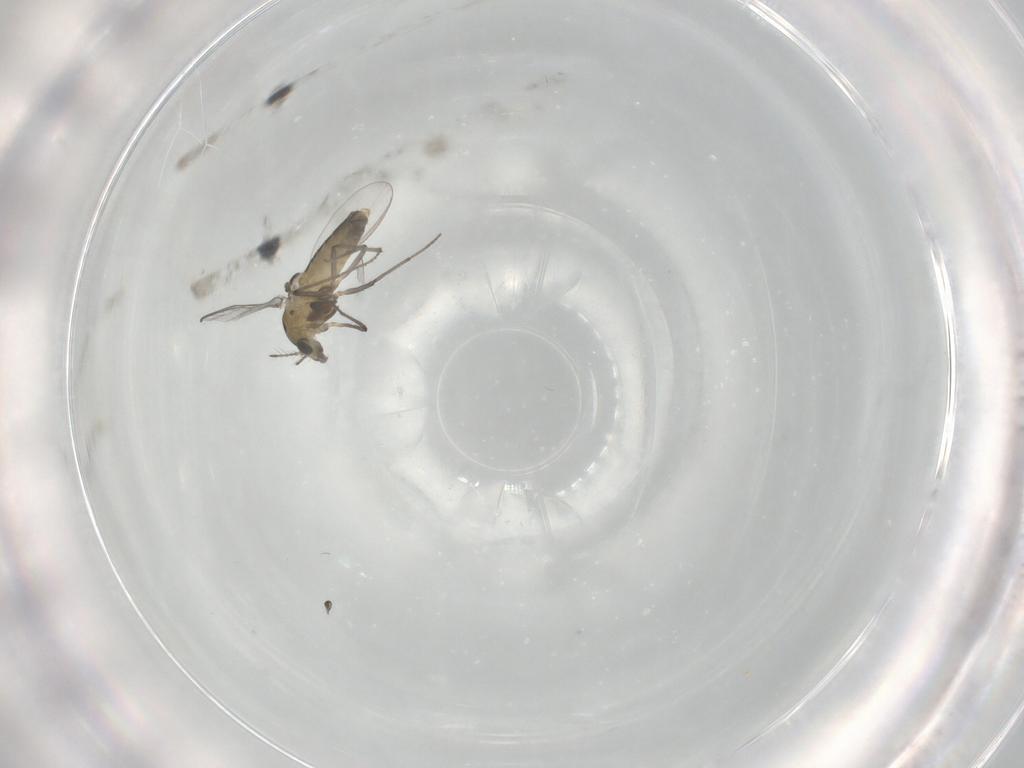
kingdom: Animalia
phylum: Arthropoda
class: Insecta
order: Diptera
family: Chironomidae
